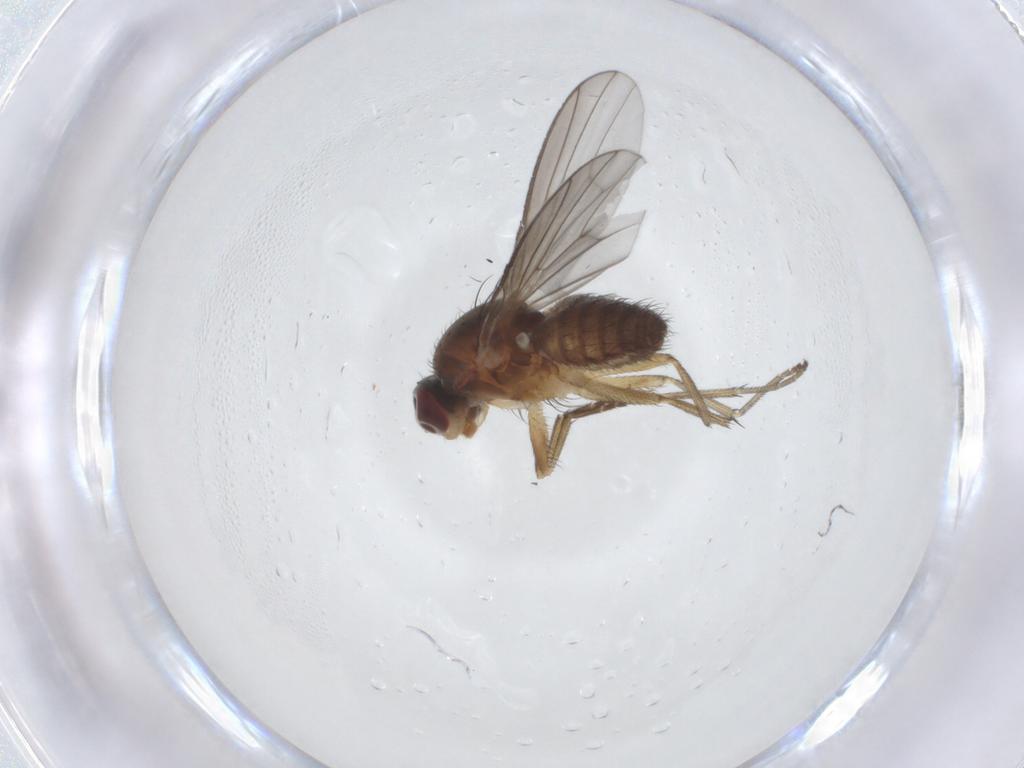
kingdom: Animalia
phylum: Arthropoda
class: Insecta
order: Diptera
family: Heleomyzidae
